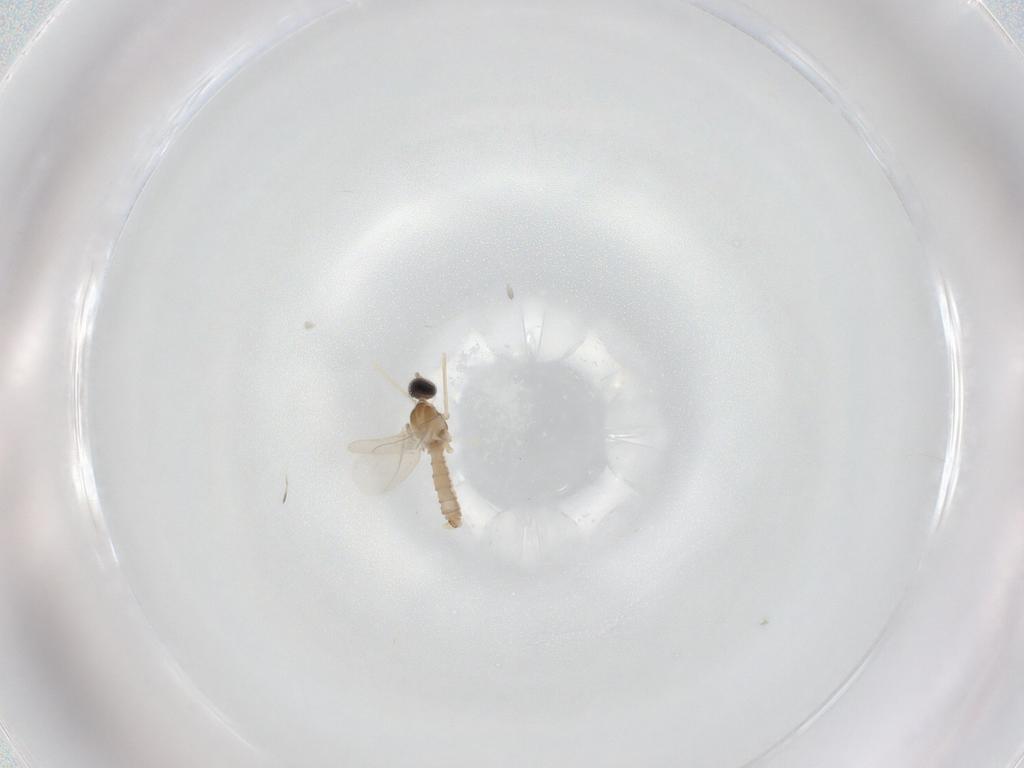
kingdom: Animalia
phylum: Arthropoda
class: Insecta
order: Diptera
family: Cecidomyiidae
